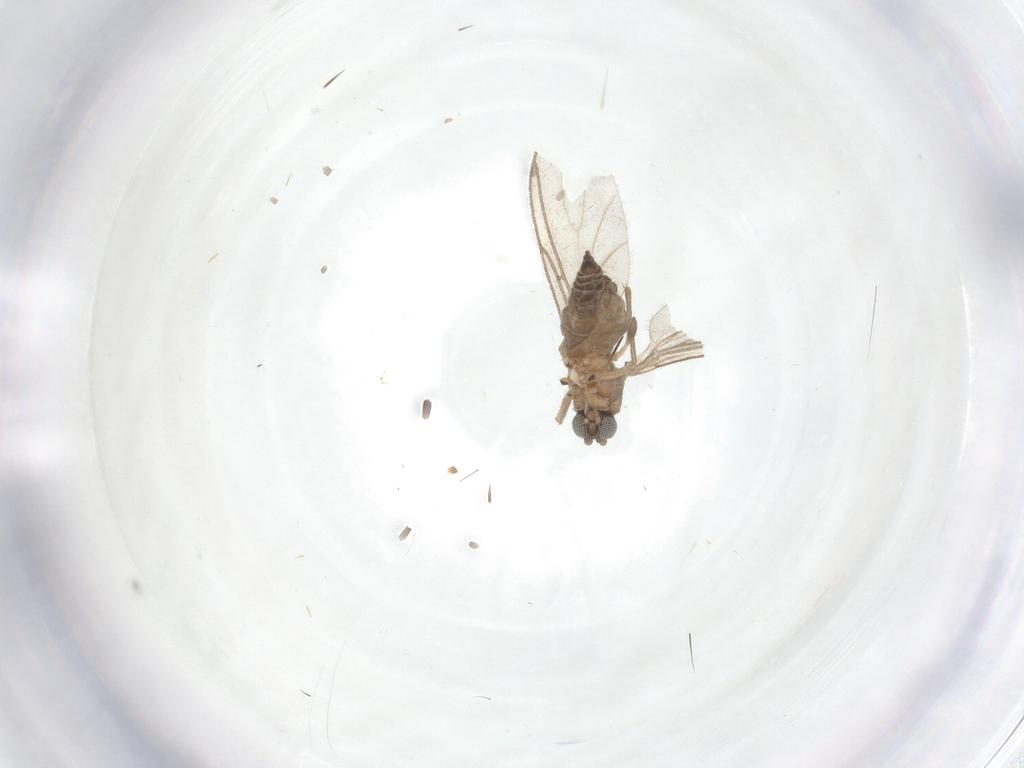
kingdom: Animalia
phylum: Arthropoda
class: Insecta
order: Diptera
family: Sciaridae
